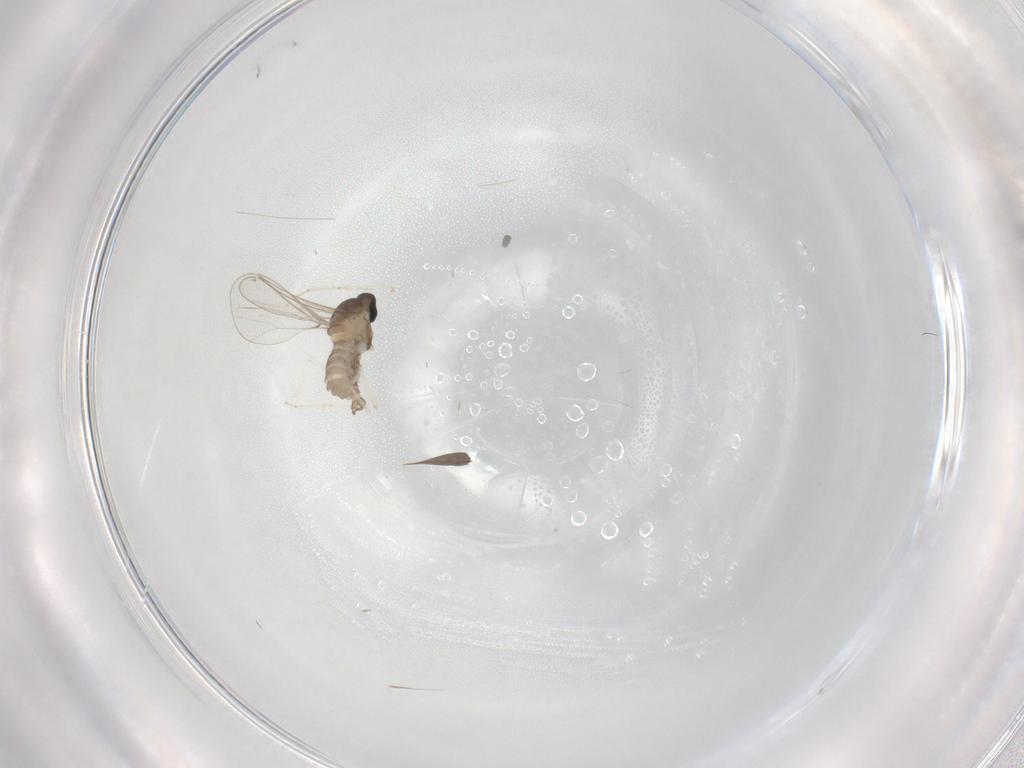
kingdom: Animalia
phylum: Arthropoda
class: Insecta
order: Diptera
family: Cecidomyiidae
